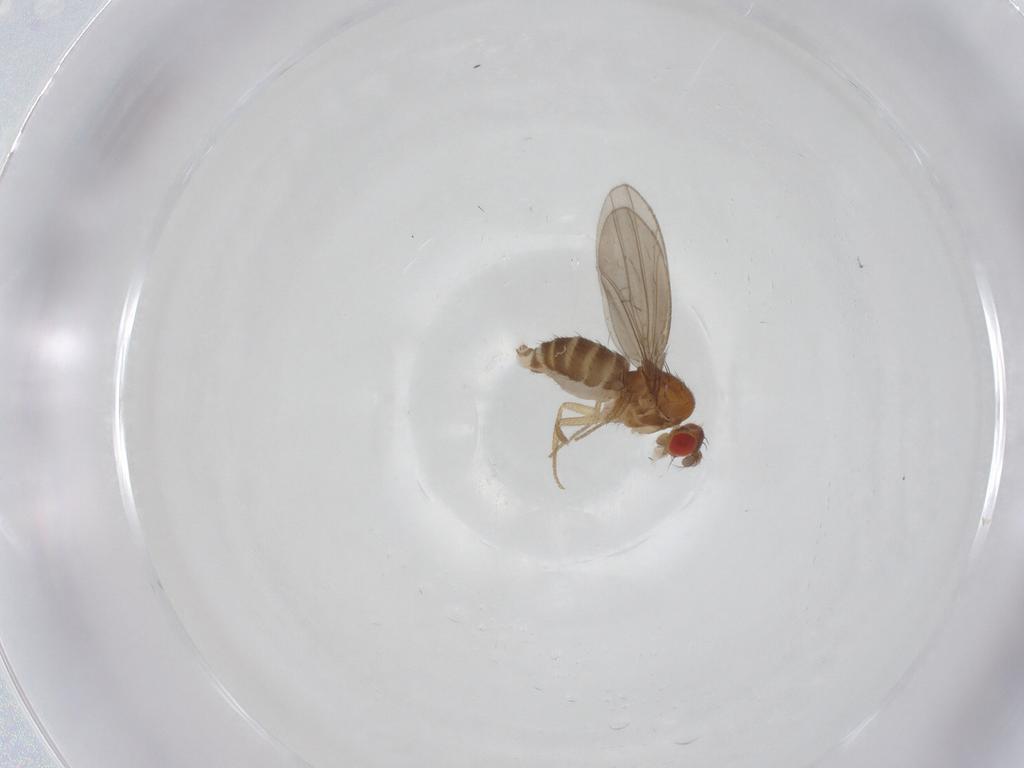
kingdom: Animalia
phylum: Arthropoda
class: Insecta
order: Diptera
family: Drosophilidae
